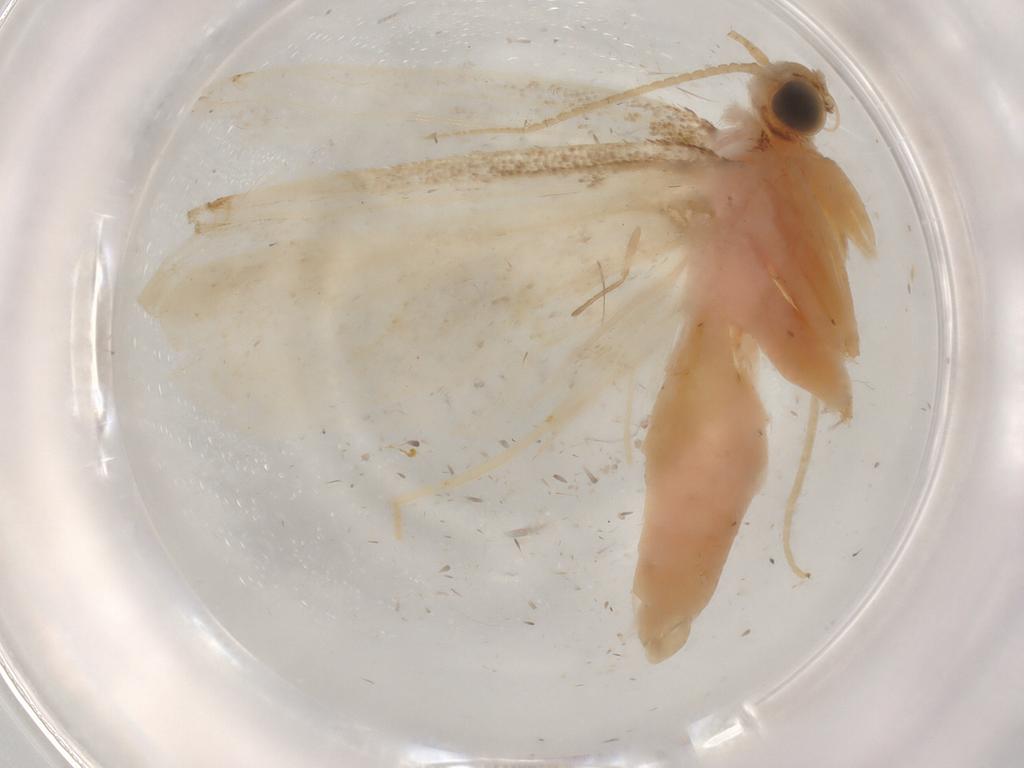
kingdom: Animalia
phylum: Arthropoda
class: Insecta
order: Lepidoptera
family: Crambidae
